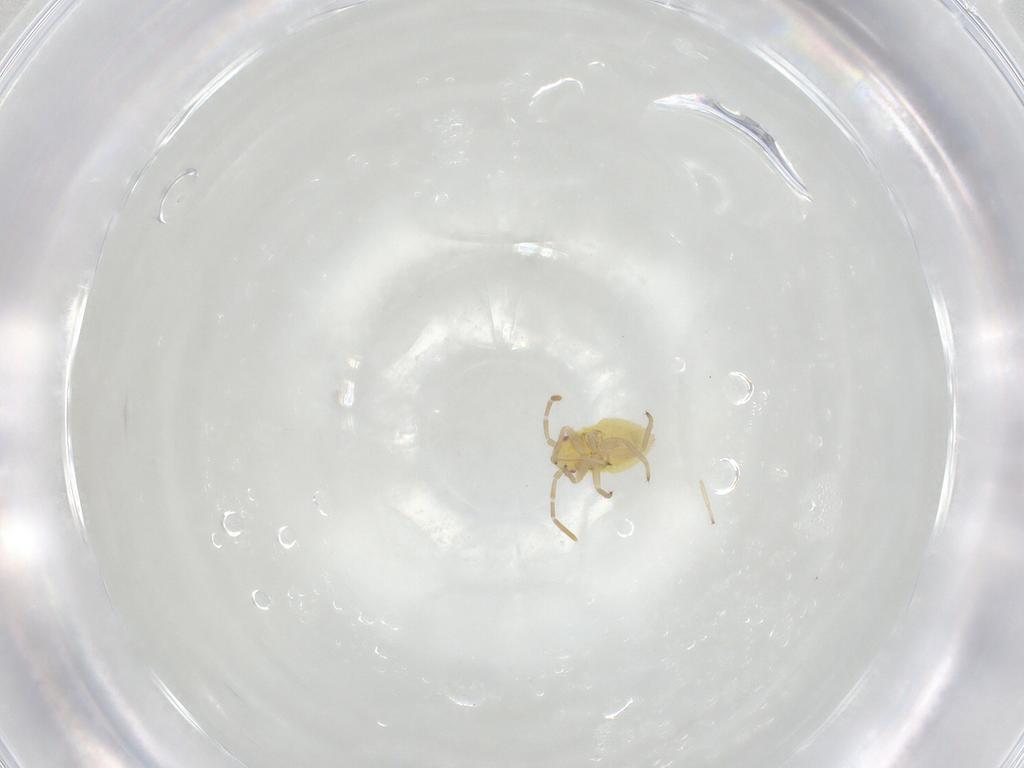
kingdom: Animalia
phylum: Arthropoda
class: Insecta
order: Hemiptera
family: Miridae
